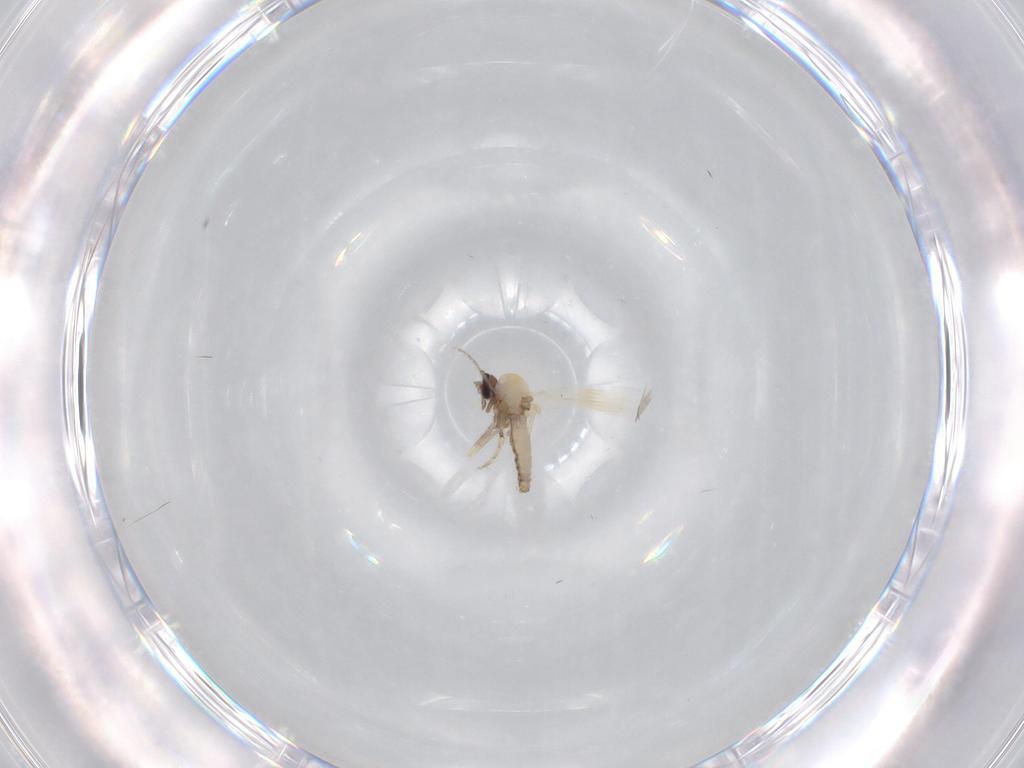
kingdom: Animalia
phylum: Arthropoda
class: Insecta
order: Diptera
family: Ceratopogonidae
